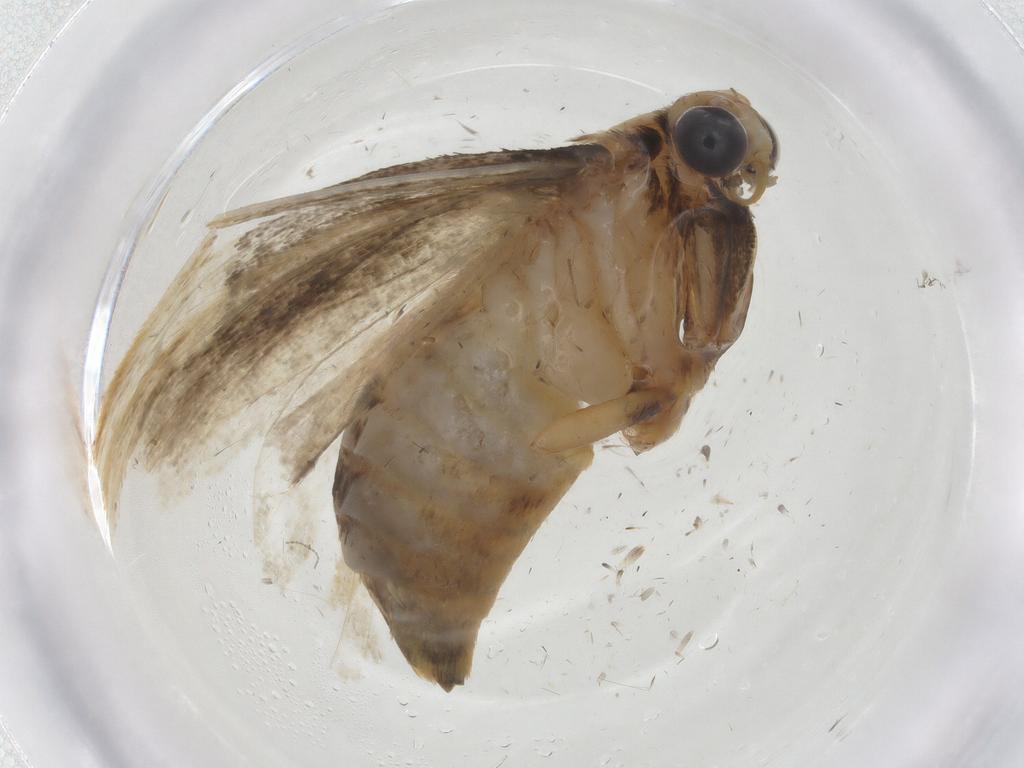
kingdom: Animalia
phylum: Arthropoda
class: Insecta
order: Lepidoptera
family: Tineidae
